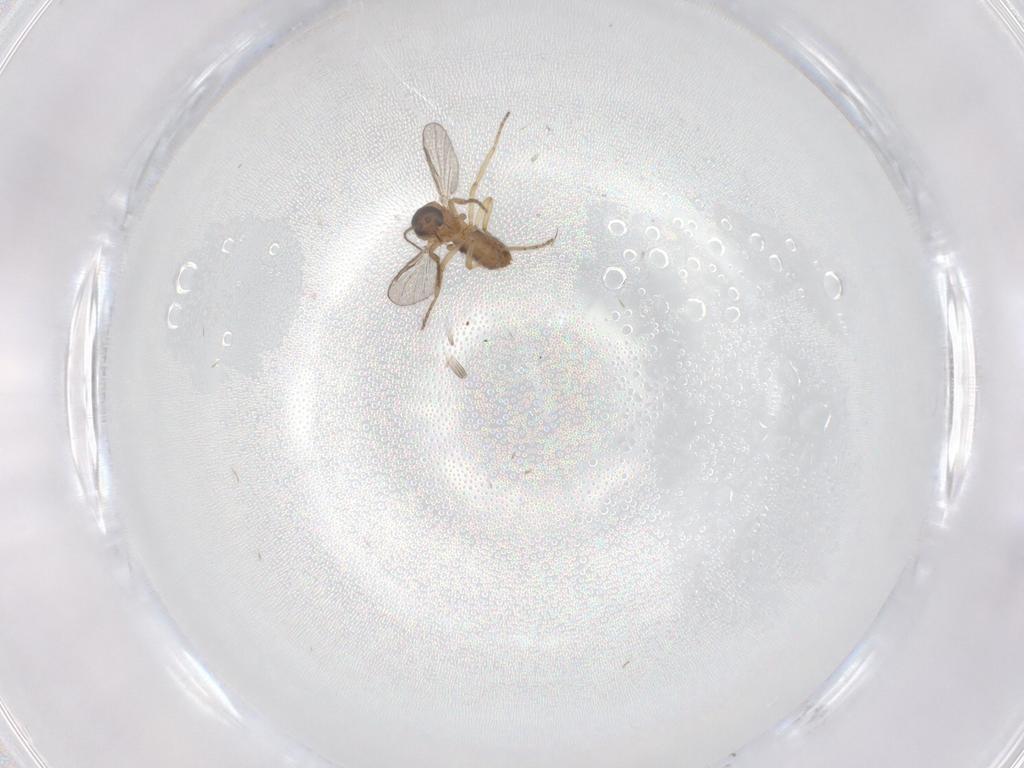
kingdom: Animalia
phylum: Arthropoda
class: Insecta
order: Diptera
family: Ceratopogonidae
